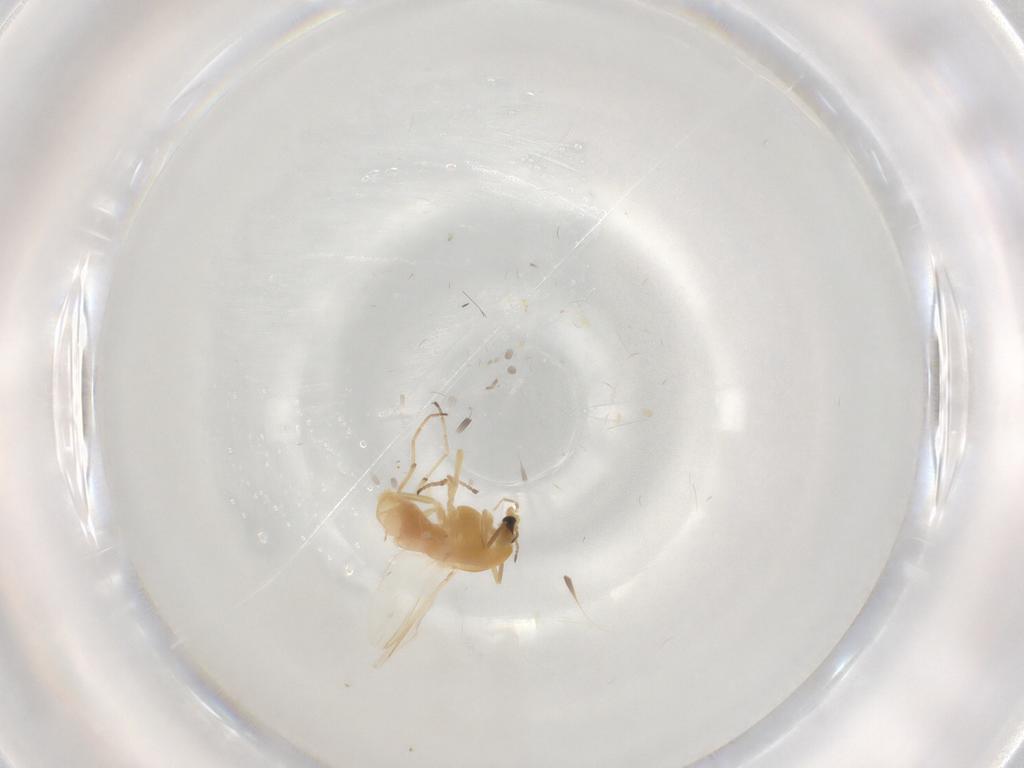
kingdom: Animalia
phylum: Arthropoda
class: Insecta
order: Diptera
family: Chironomidae
